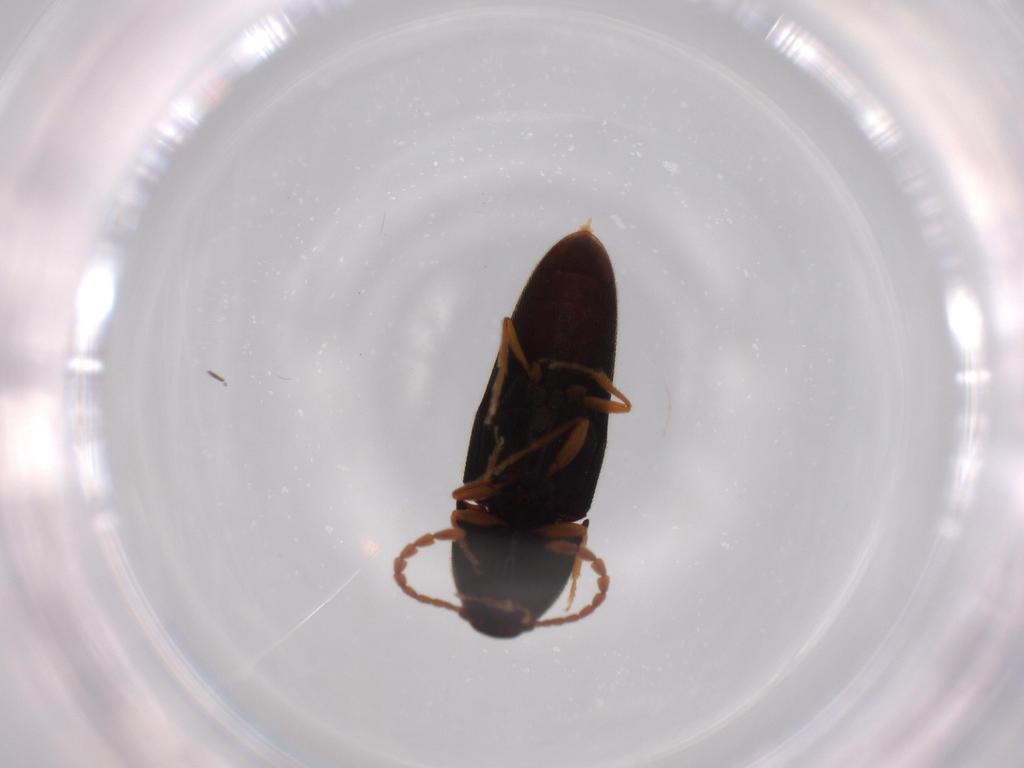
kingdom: Animalia
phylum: Arthropoda
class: Insecta
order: Coleoptera
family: Elateridae
